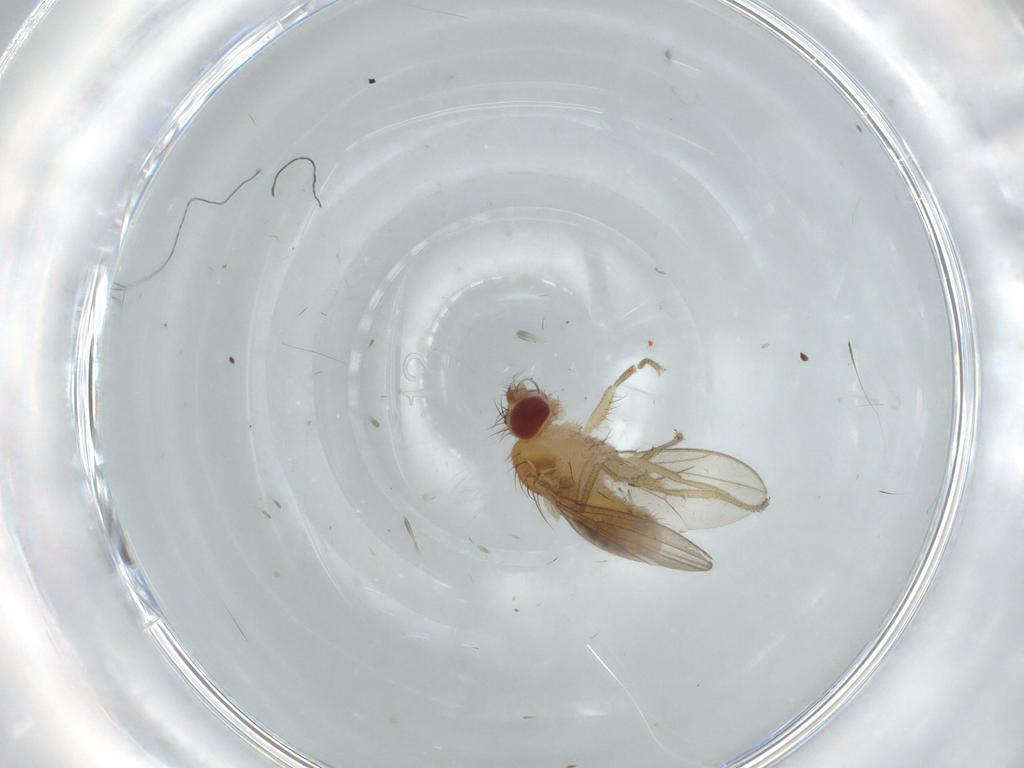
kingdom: Animalia
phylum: Arthropoda
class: Insecta
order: Diptera
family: Drosophilidae
